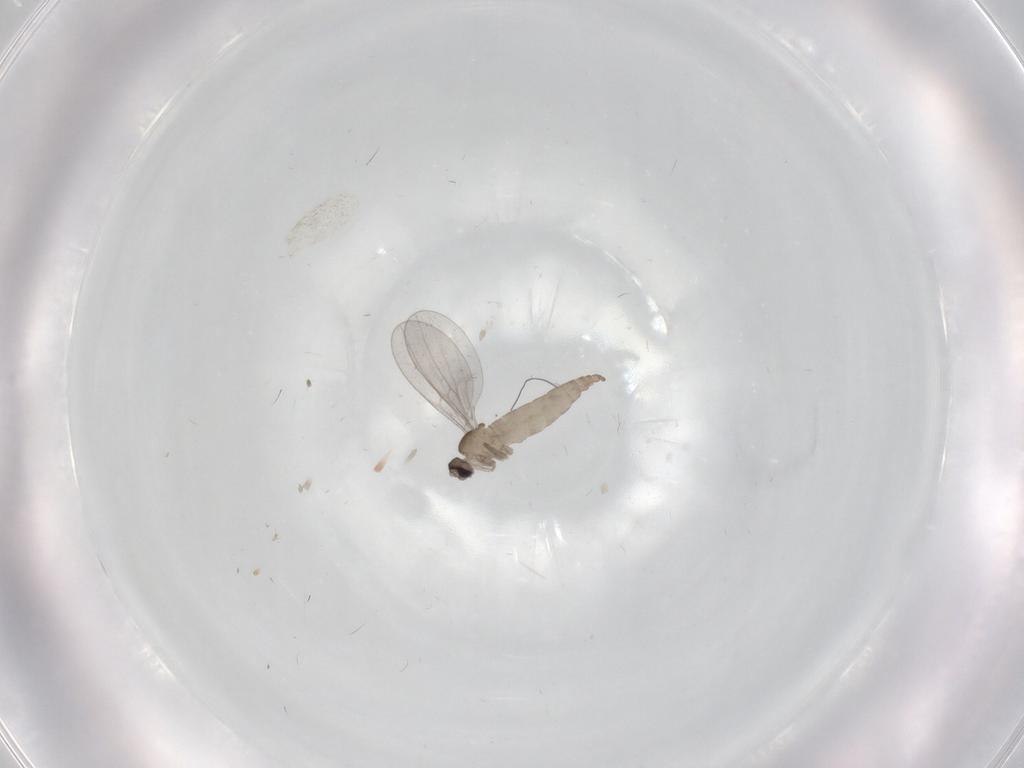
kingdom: Animalia
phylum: Arthropoda
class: Insecta
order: Diptera
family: Cecidomyiidae
